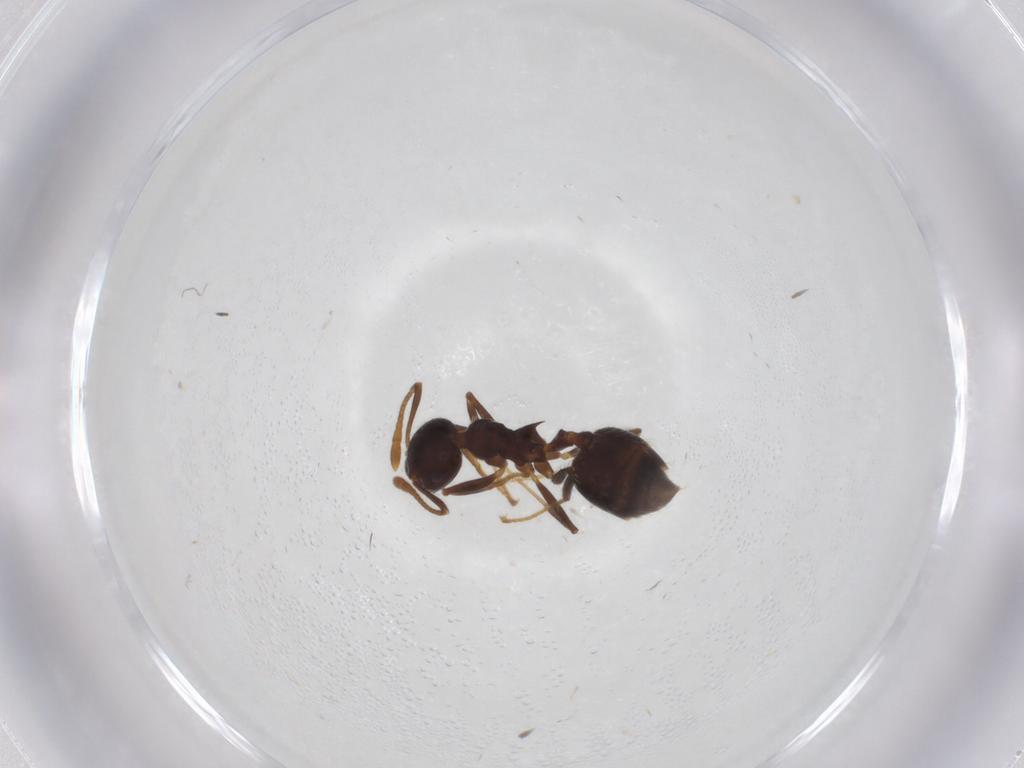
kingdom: Animalia
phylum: Arthropoda
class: Insecta
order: Hymenoptera
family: Formicidae
